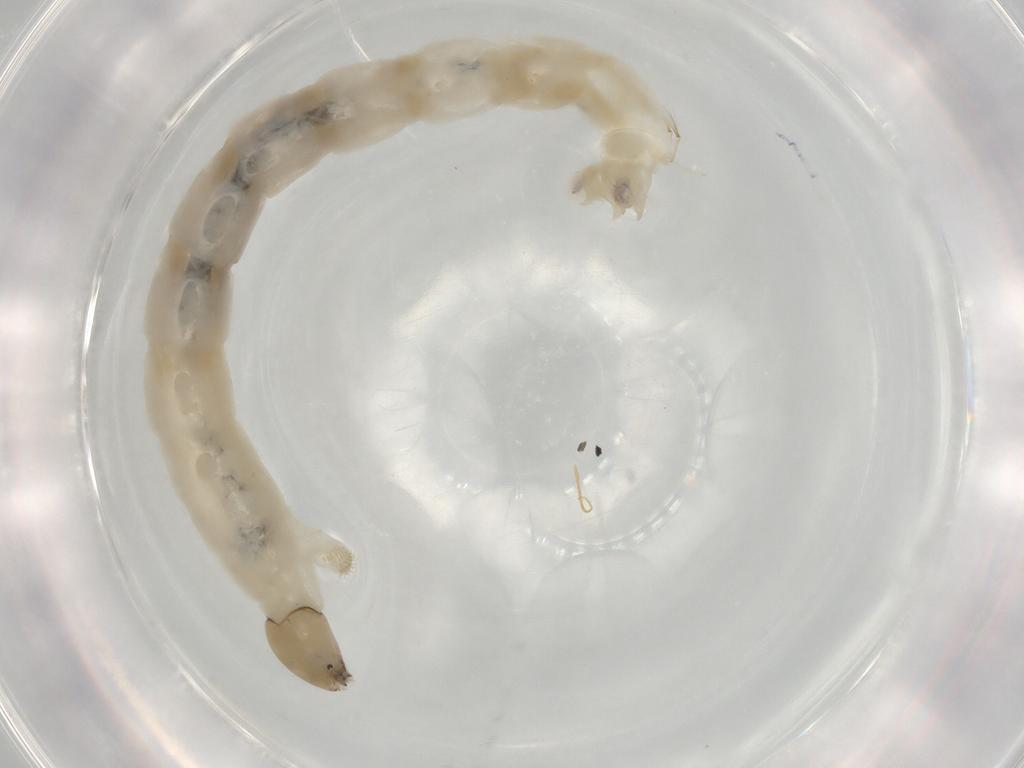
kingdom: Animalia
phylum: Arthropoda
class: Insecta
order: Diptera
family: Chironomidae
